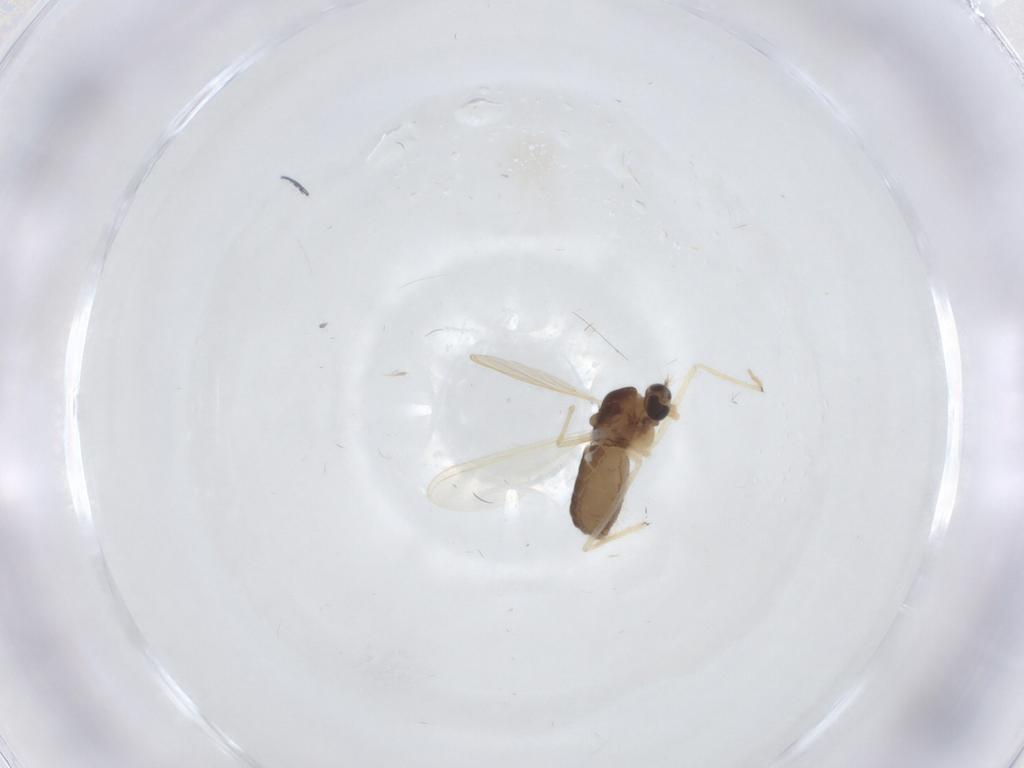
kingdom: Animalia
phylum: Arthropoda
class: Insecta
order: Diptera
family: Chironomidae
